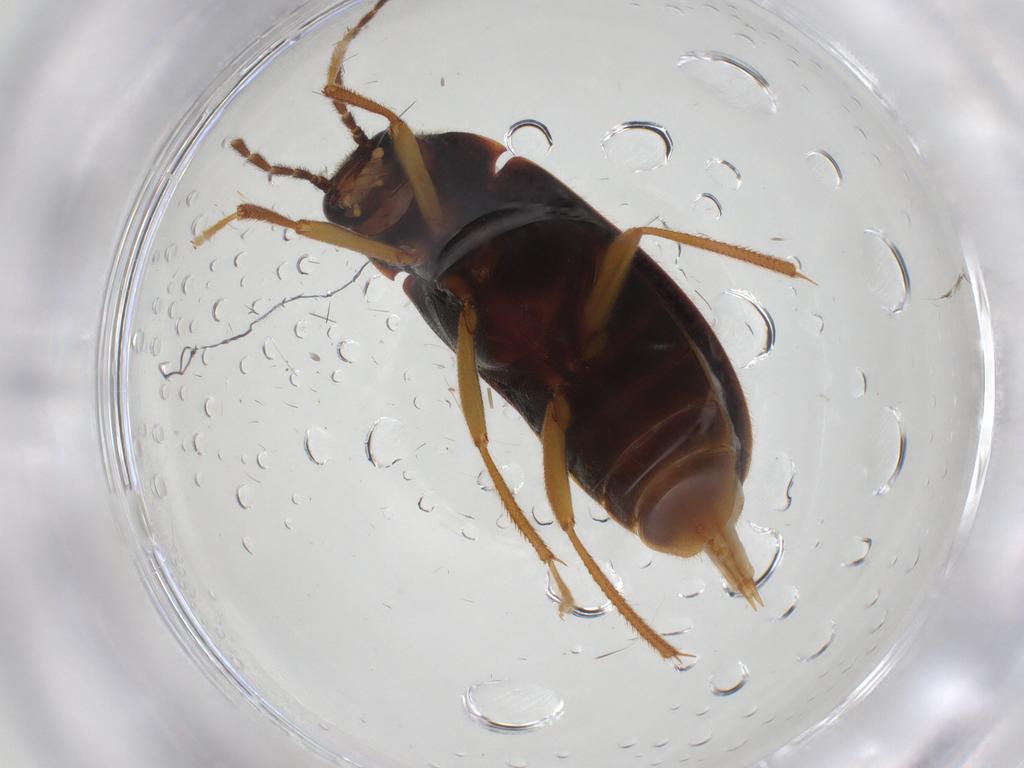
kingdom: Animalia
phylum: Arthropoda
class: Insecta
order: Coleoptera
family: Ptilodactylidae
